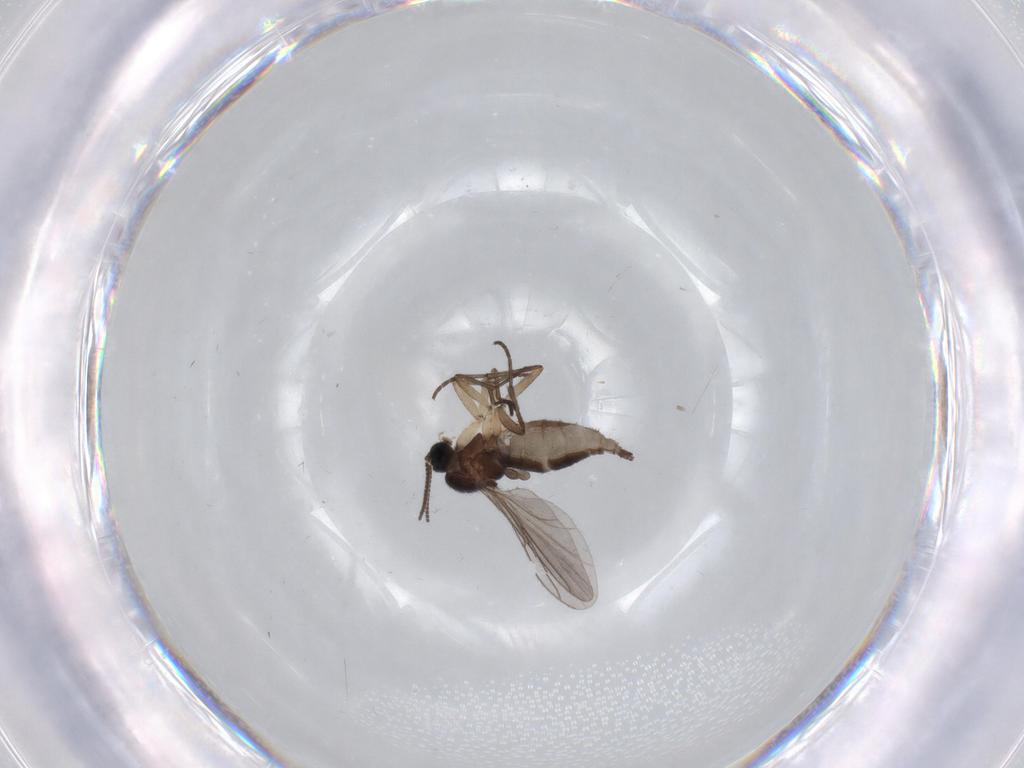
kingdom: Animalia
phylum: Arthropoda
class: Insecta
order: Diptera
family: Sciaridae
